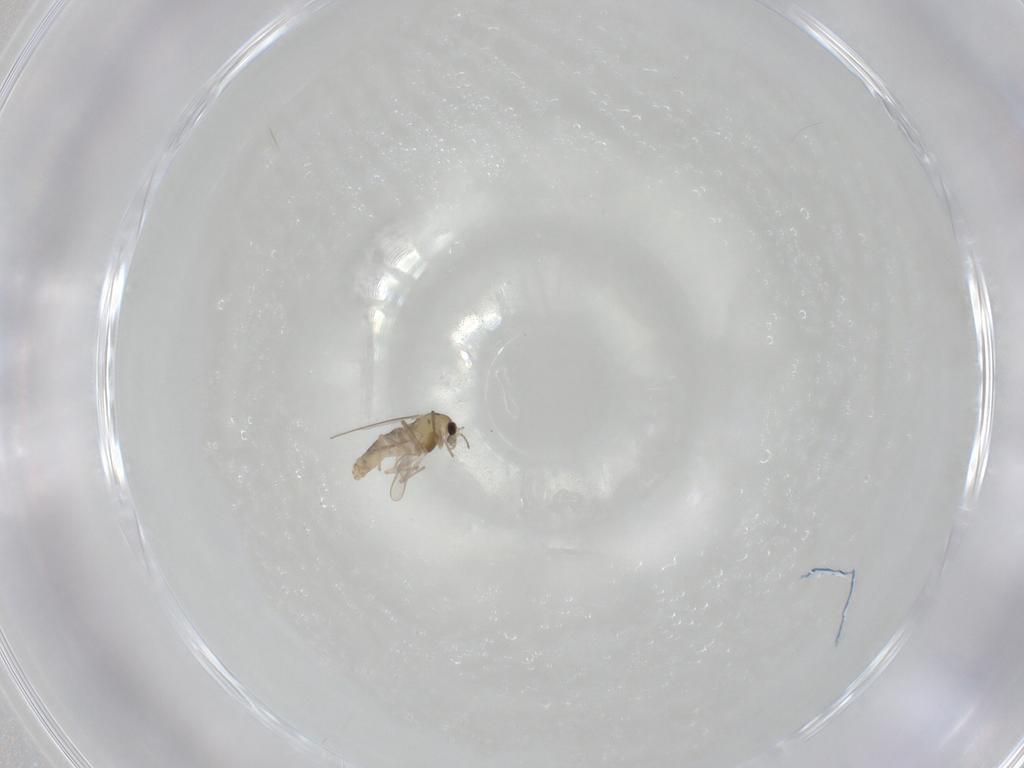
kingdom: Animalia
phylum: Arthropoda
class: Insecta
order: Diptera
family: Chironomidae
